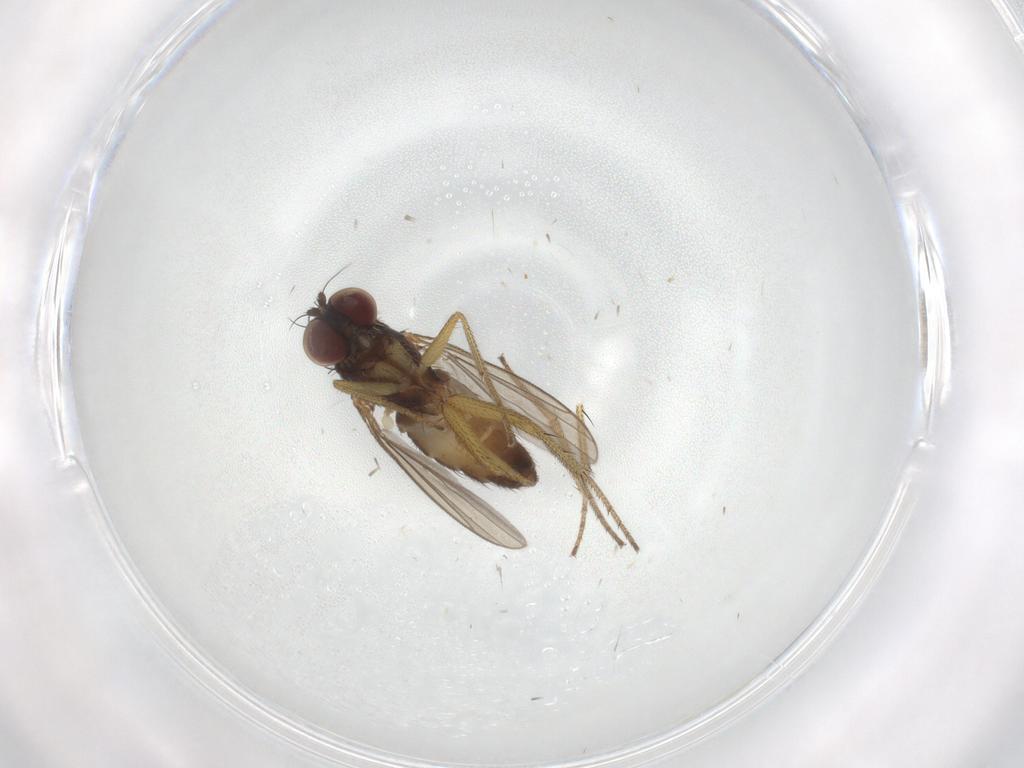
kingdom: Animalia
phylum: Arthropoda
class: Insecta
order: Diptera
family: Dolichopodidae
